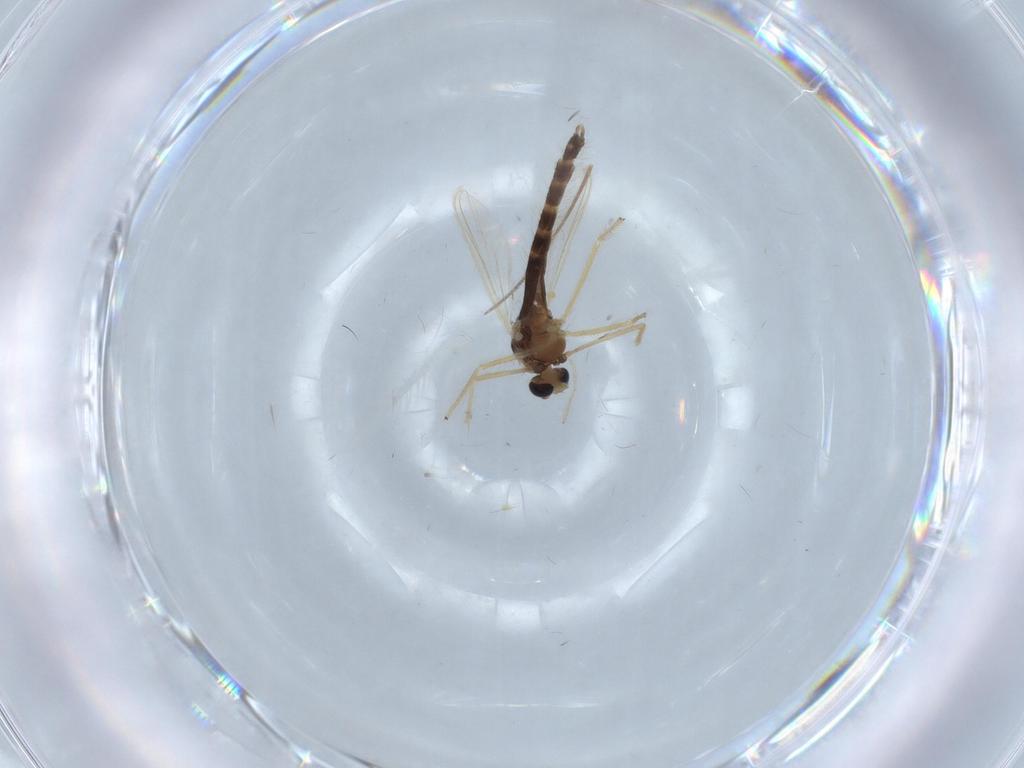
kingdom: Animalia
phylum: Arthropoda
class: Insecta
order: Diptera
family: Chironomidae
